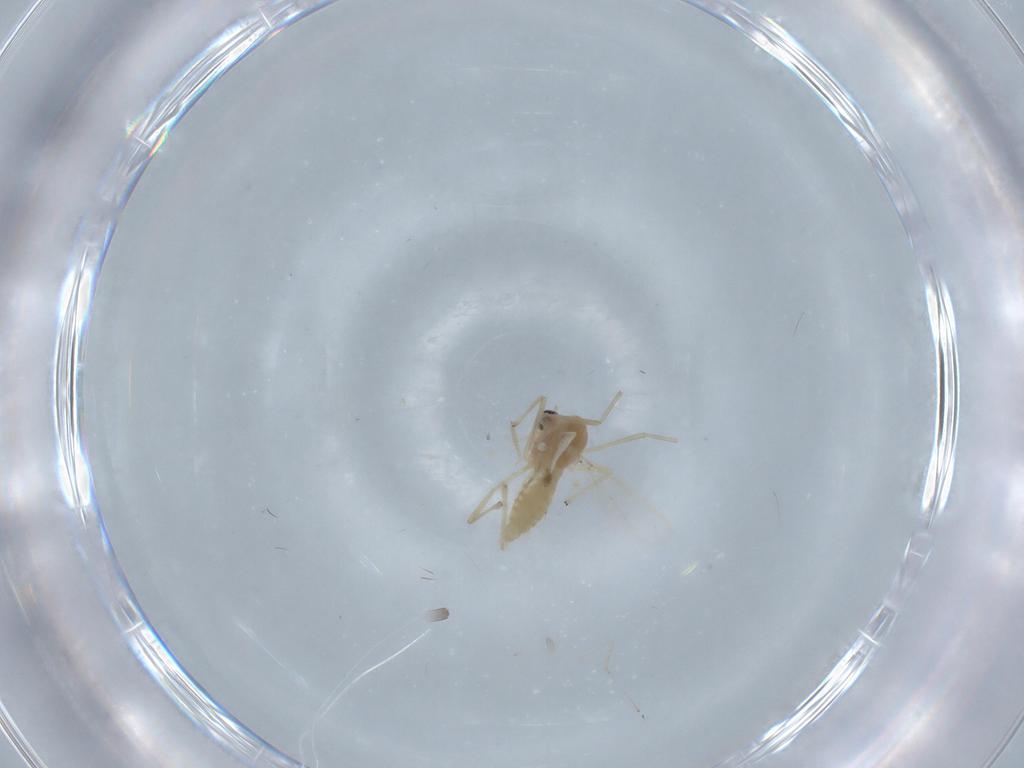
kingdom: Animalia
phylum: Arthropoda
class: Insecta
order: Diptera
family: Chironomidae
